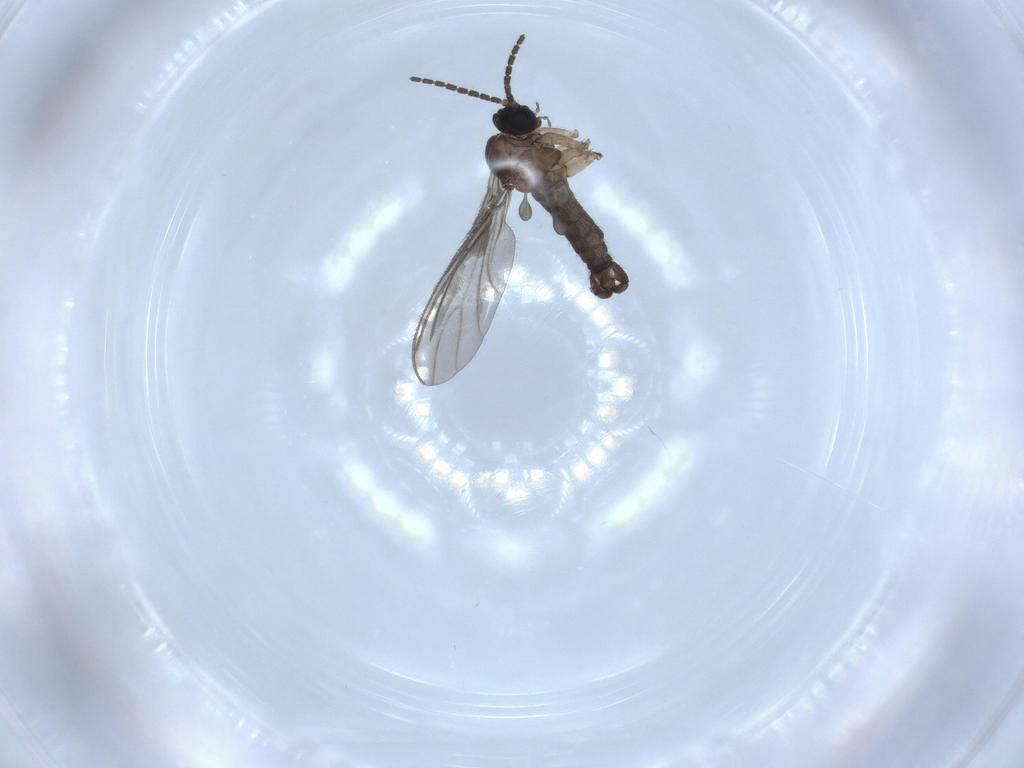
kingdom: Animalia
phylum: Arthropoda
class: Insecta
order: Diptera
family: Sciaridae
